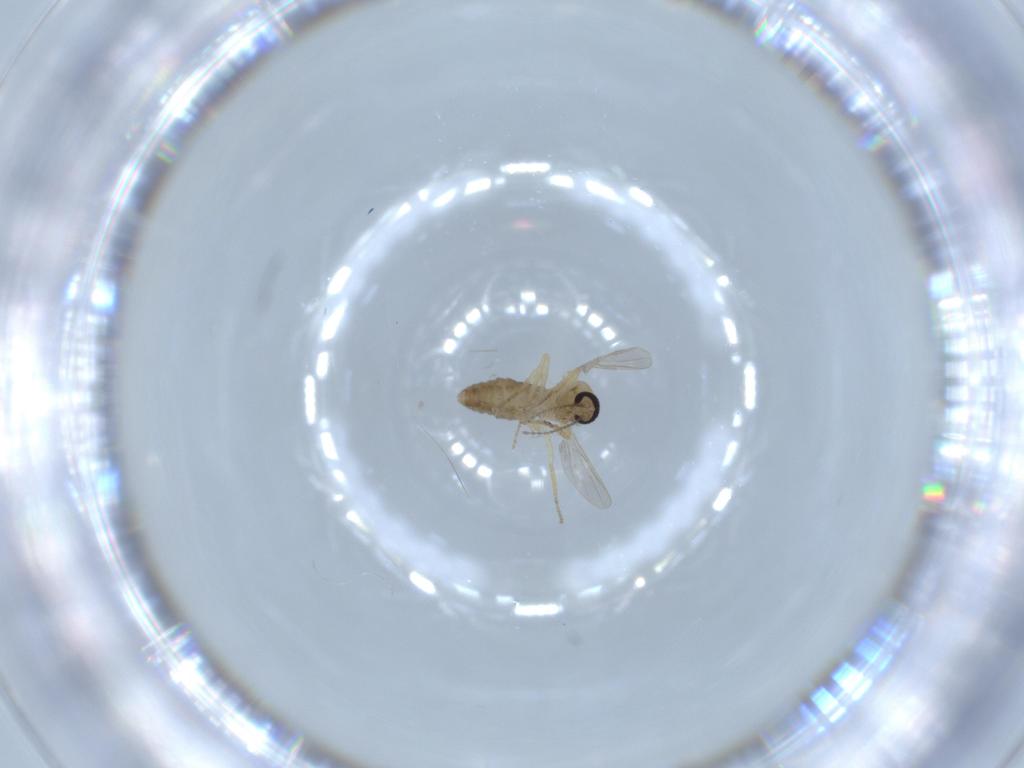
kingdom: Animalia
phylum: Arthropoda
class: Insecta
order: Diptera
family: Ceratopogonidae
